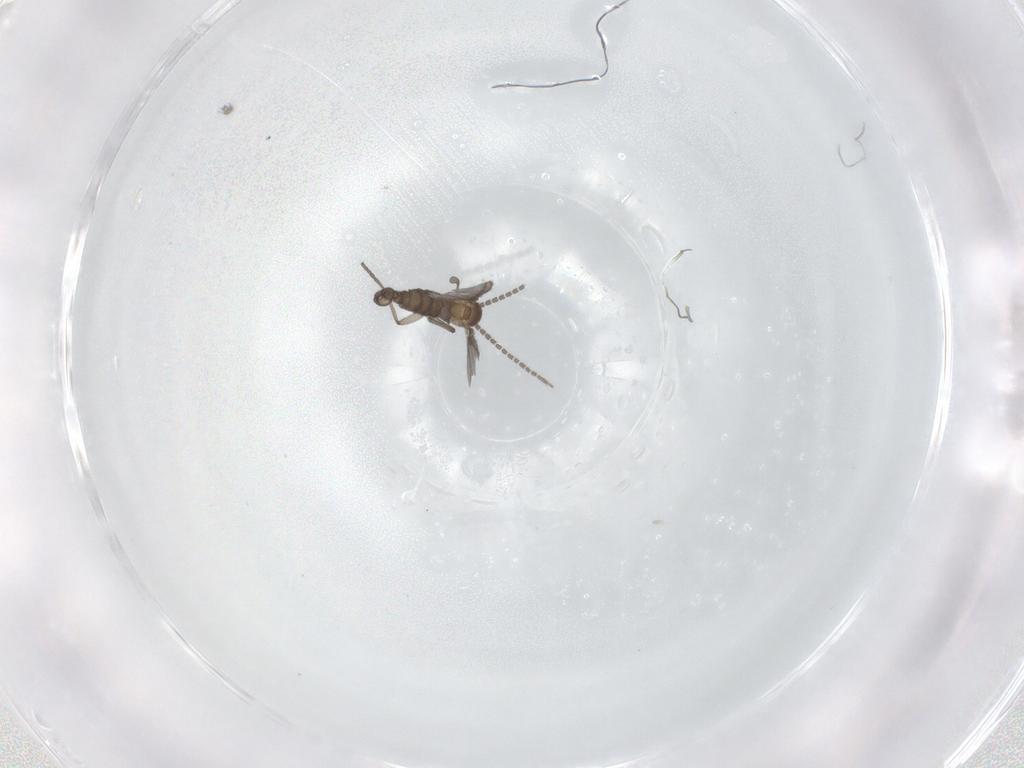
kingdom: Animalia
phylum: Arthropoda
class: Insecta
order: Diptera
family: Sciaridae
